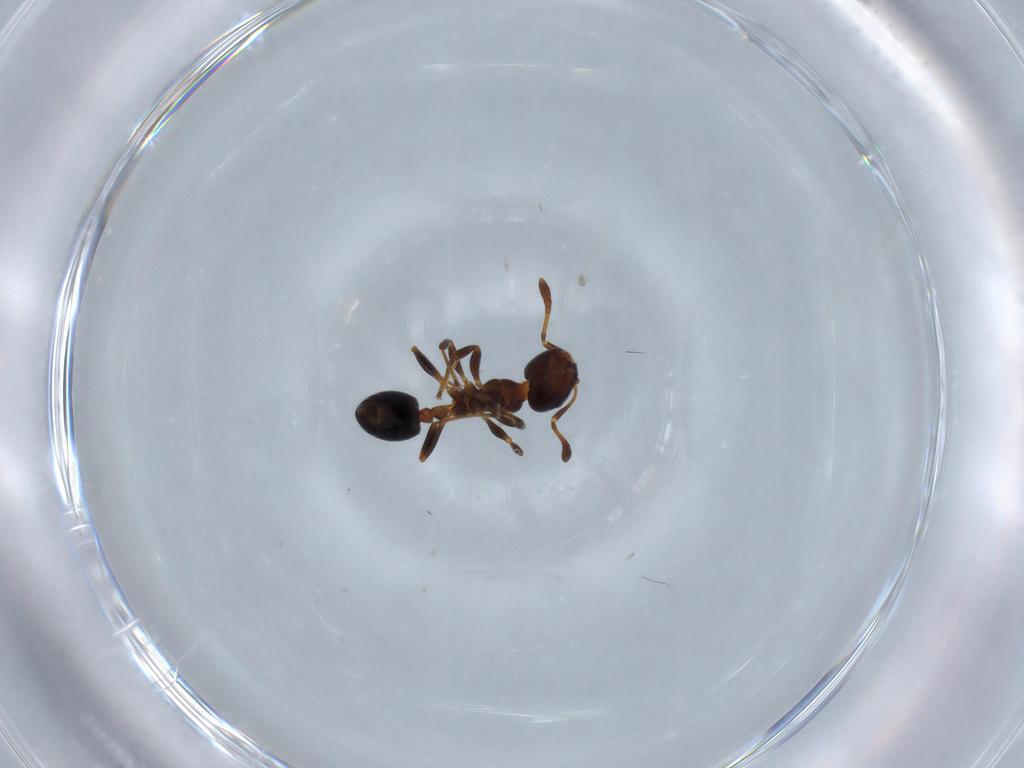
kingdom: Animalia
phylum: Arthropoda
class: Insecta
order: Hymenoptera
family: Formicidae
